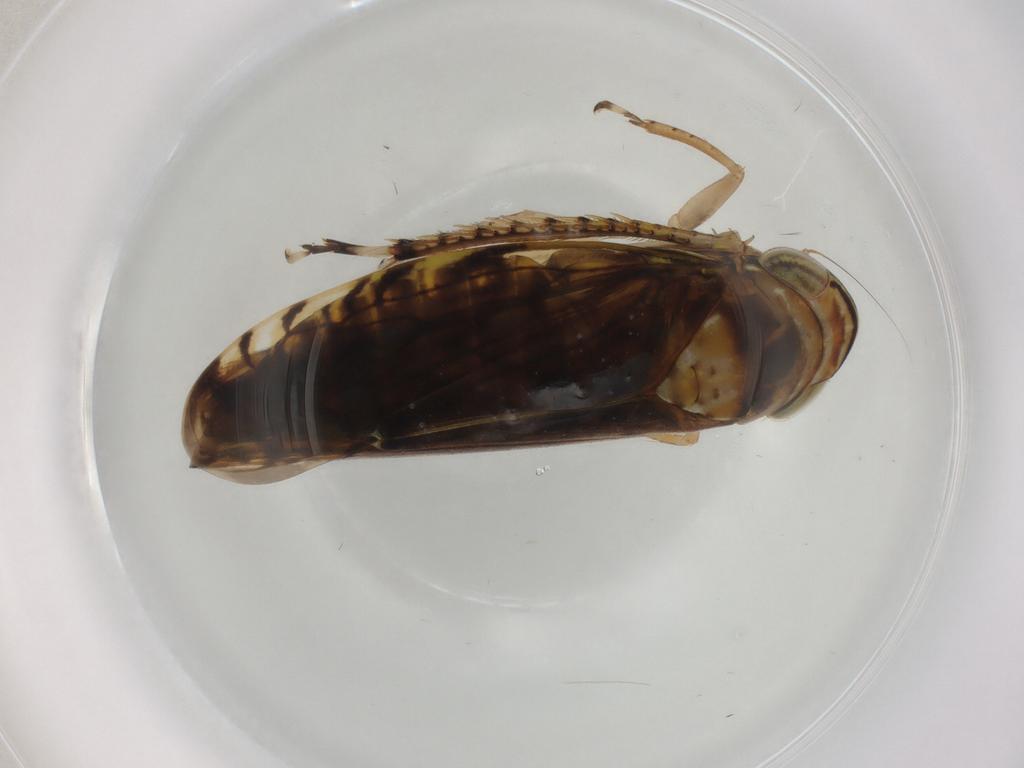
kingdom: Animalia
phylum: Arthropoda
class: Insecta
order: Hemiptera
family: Cicadellidae
